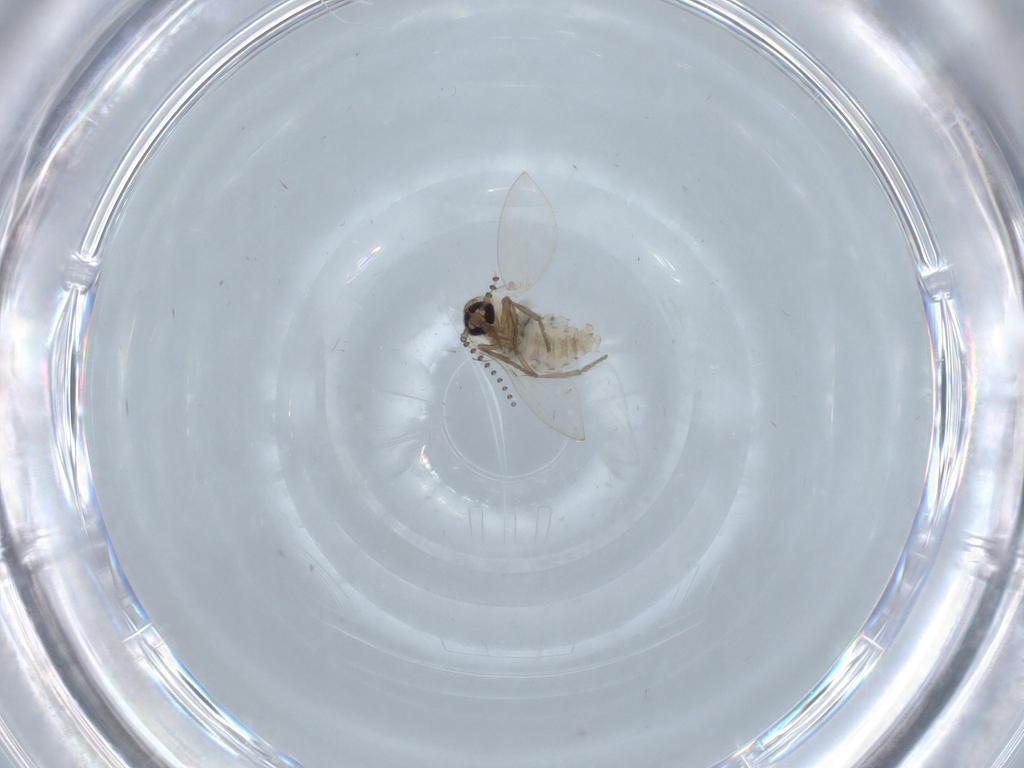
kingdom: Animalia
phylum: Arthropoda
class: Insecta
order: Diptera
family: Psychodidae
